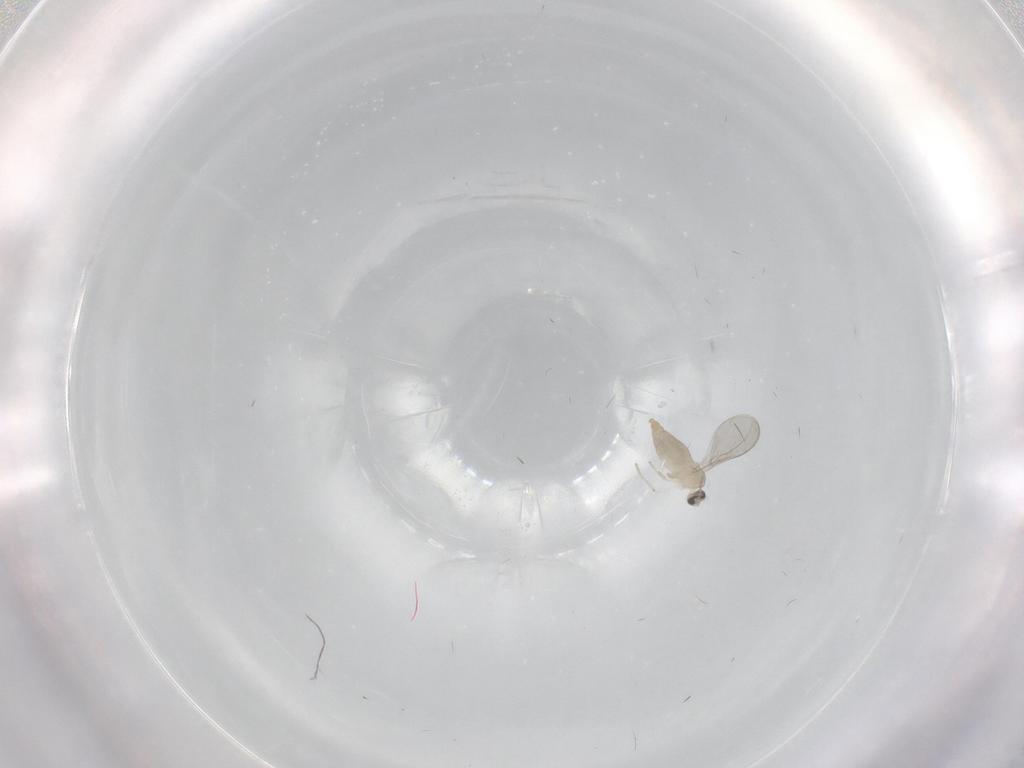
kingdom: Animalia
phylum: Arthropoda
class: Insecta
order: Diptera
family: Cecidomyiidae
